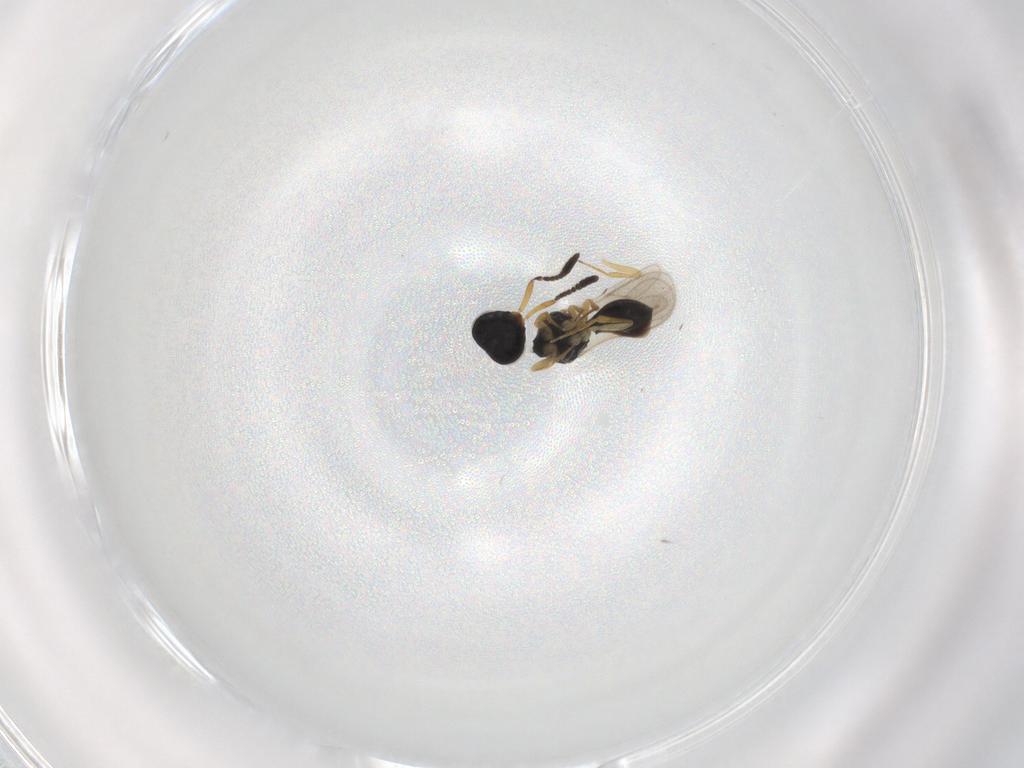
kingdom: Animalia
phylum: Arthropoda
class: Insecta
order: Hymenoptera
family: Scelionidae
